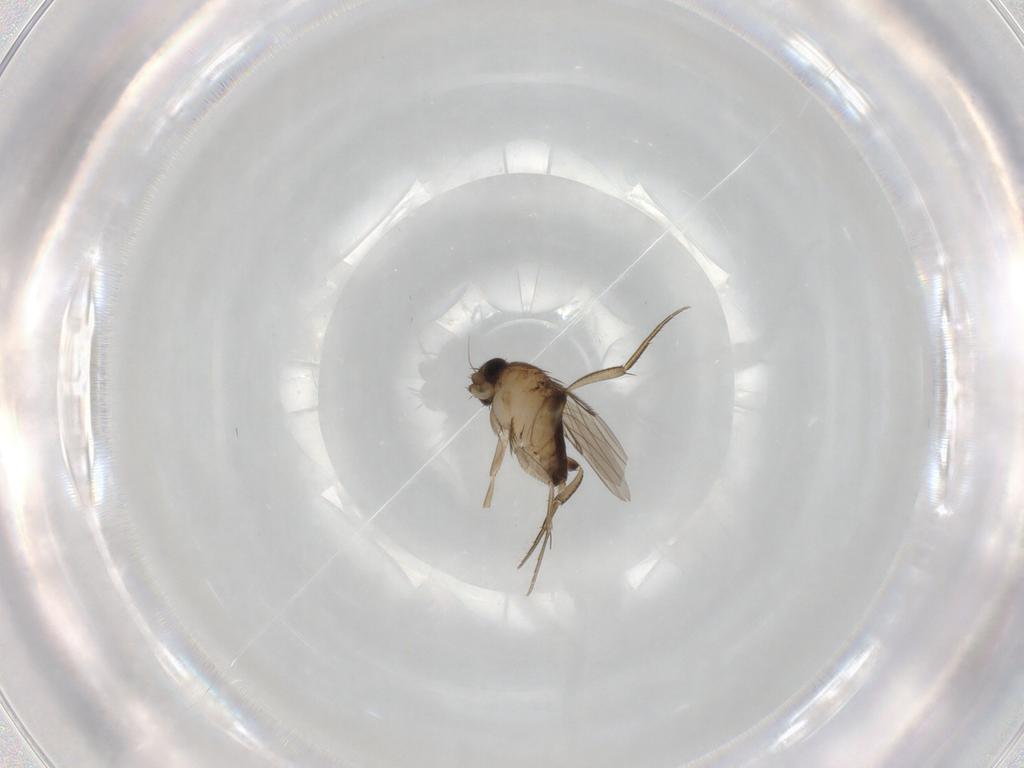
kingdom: Animalia
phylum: Arthropoda
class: Insecta
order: Diptera
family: Phoridae
